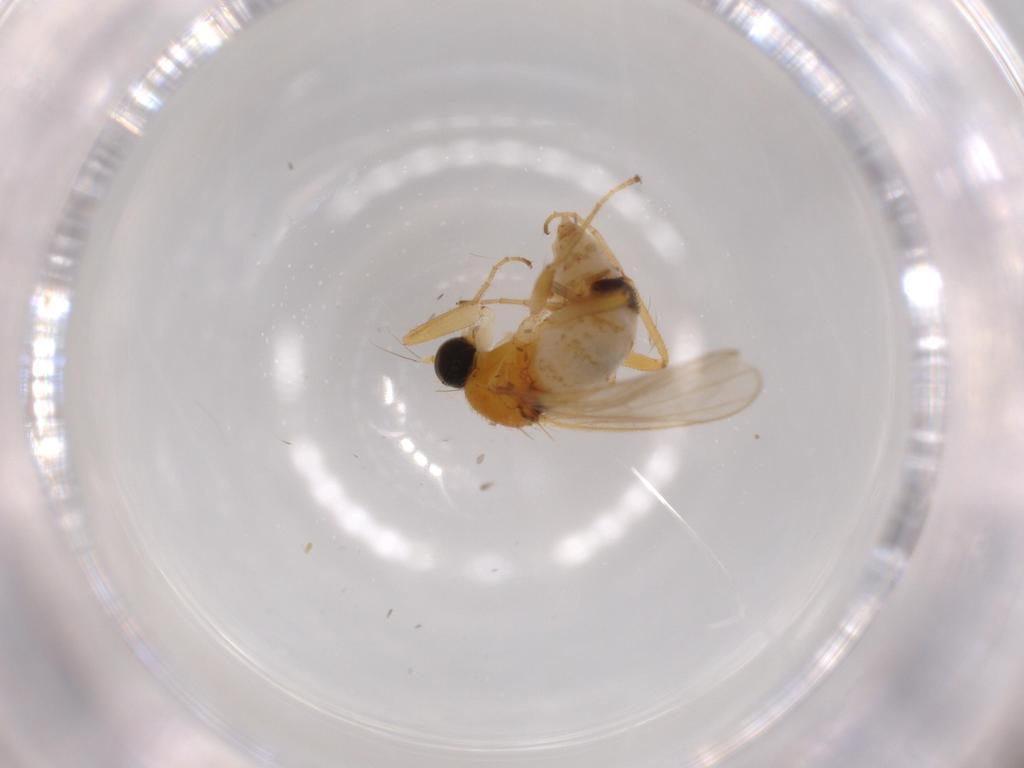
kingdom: Animalia
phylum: Arthropoda
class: Insecta
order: Diptera
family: Hybotidae
